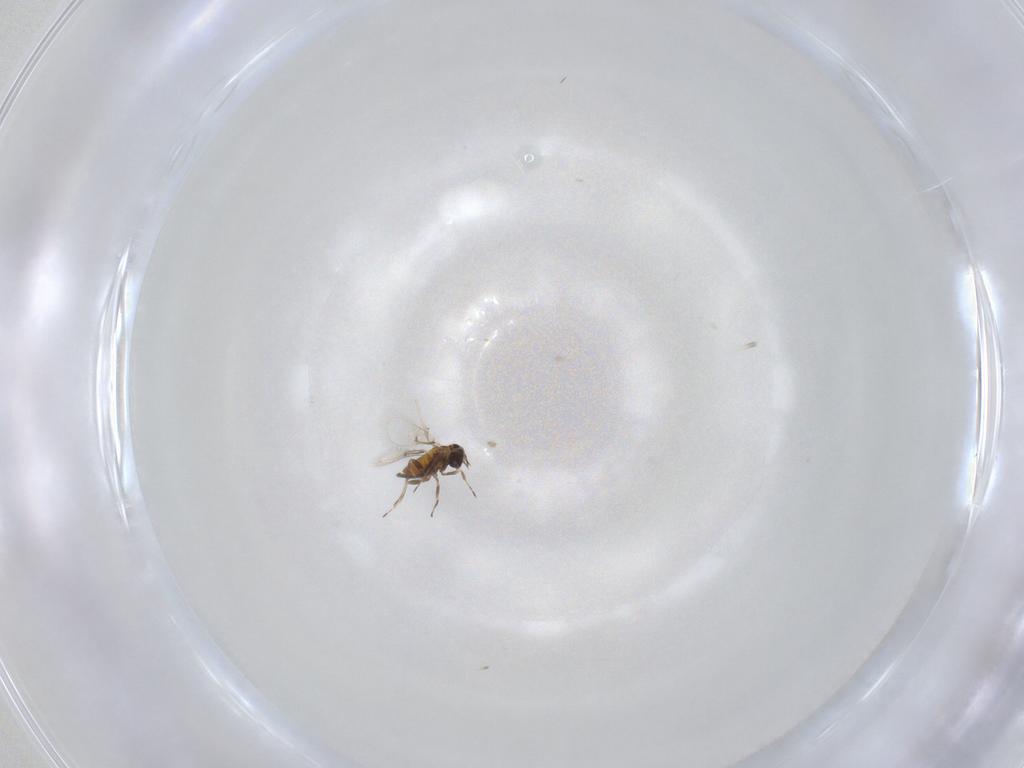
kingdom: Animalia
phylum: Arthropoda
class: Insecta
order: Hymenoptera
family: Trichogrammatidae
